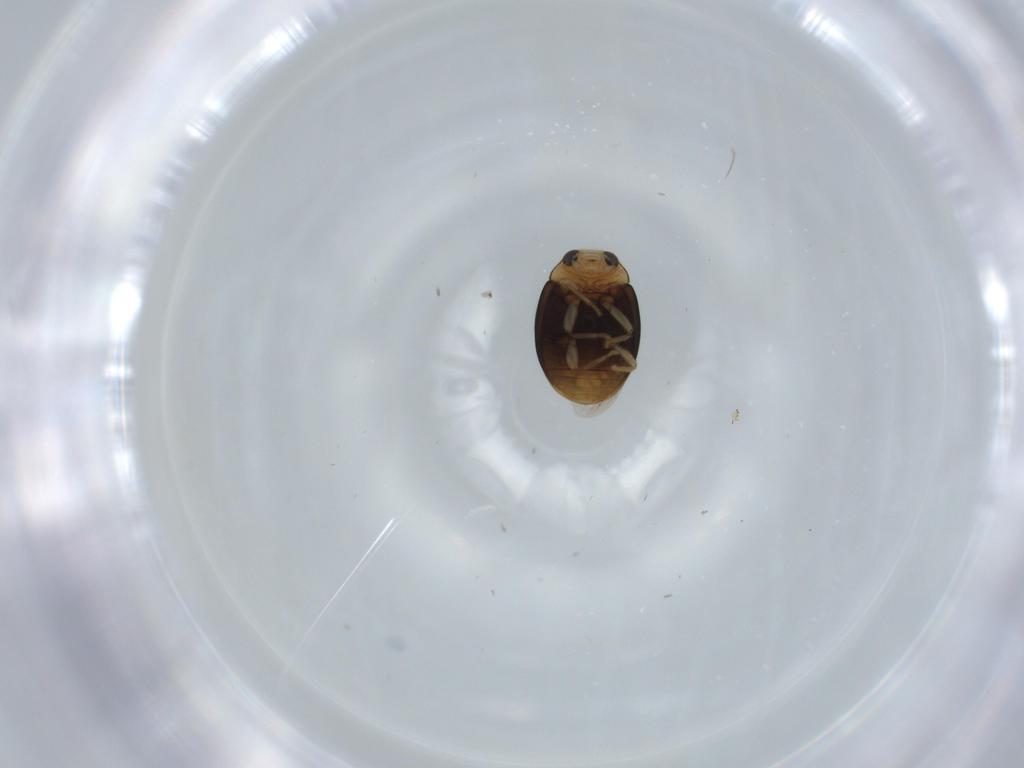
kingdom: Animalia
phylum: Arthropoda
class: Insecta
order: Coleoptera
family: Coccinellidae
